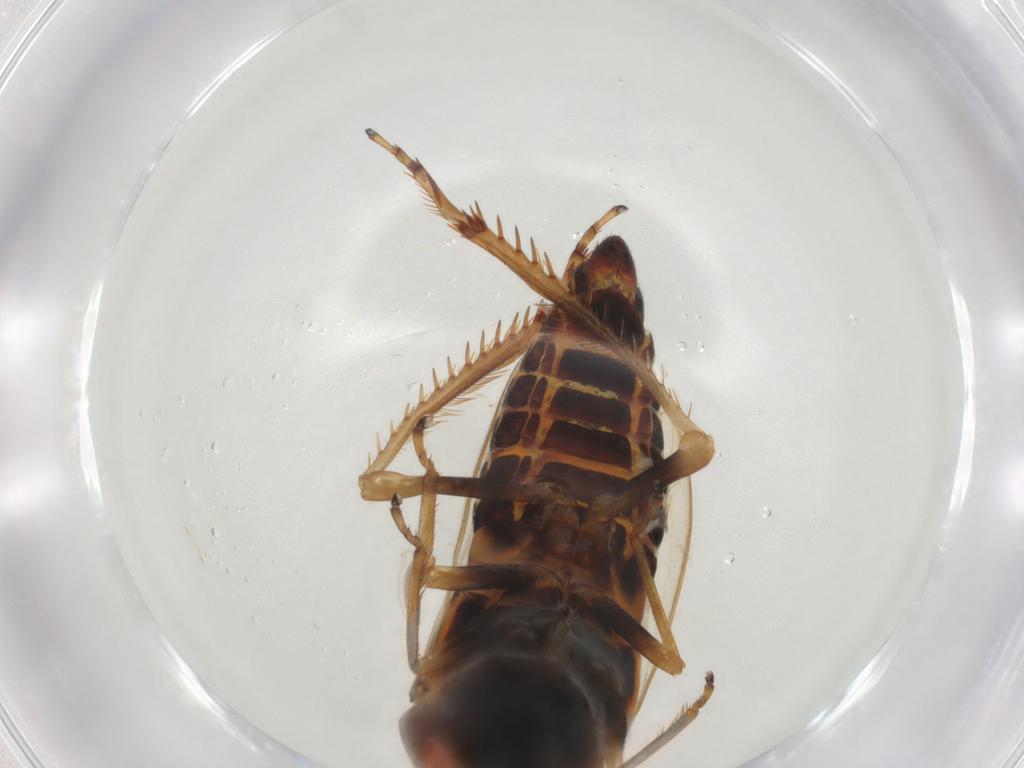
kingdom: Animalia
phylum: Arthropoda
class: Insecta
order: Hemiptera
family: Cicadellidae
